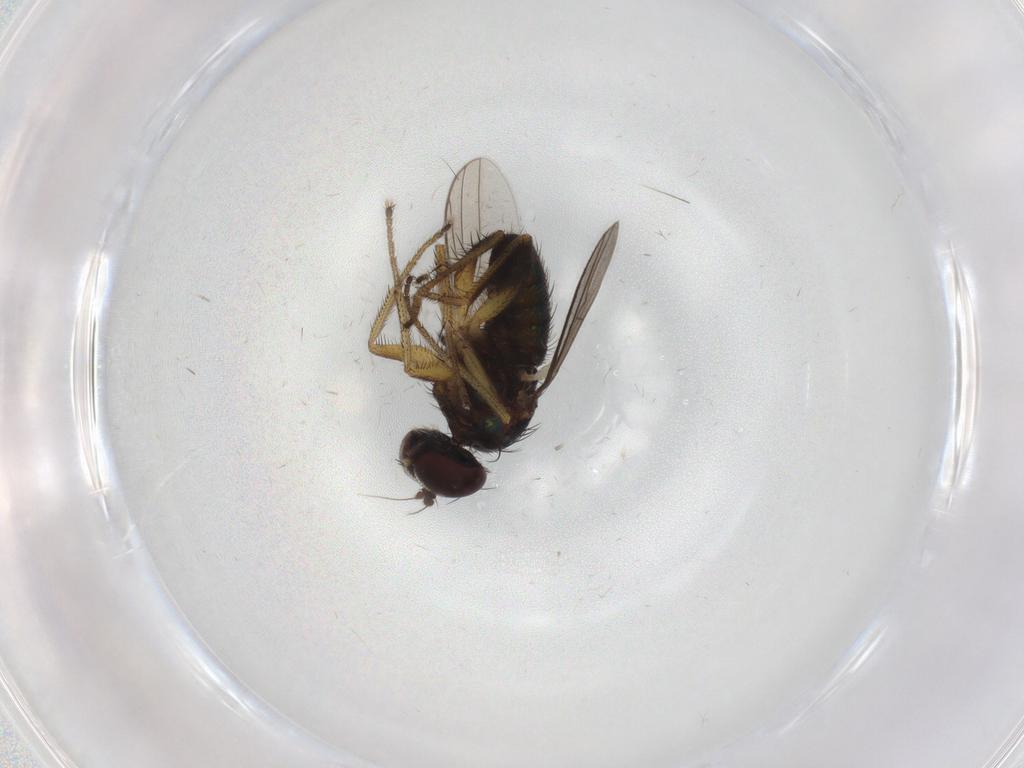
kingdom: Animalia
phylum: Arthropoda
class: Insecta
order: Diptera
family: Dolichopodidae
